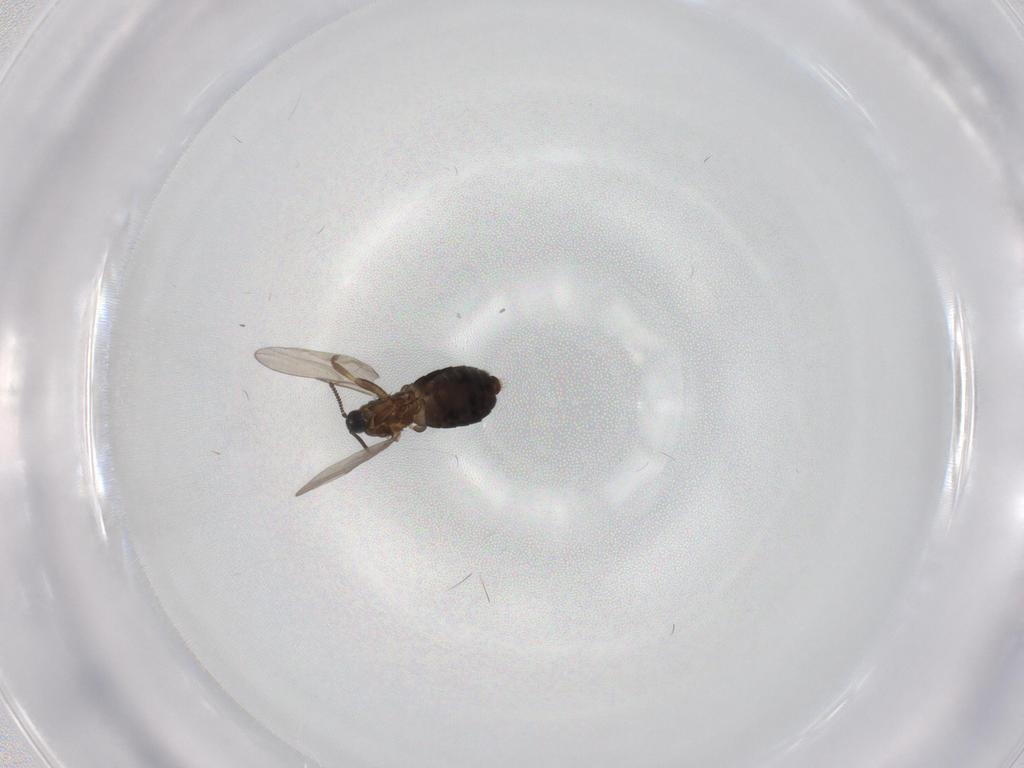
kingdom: Animalia
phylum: Arthropoda
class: Insecta
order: Diptera
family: Scatopsidae
